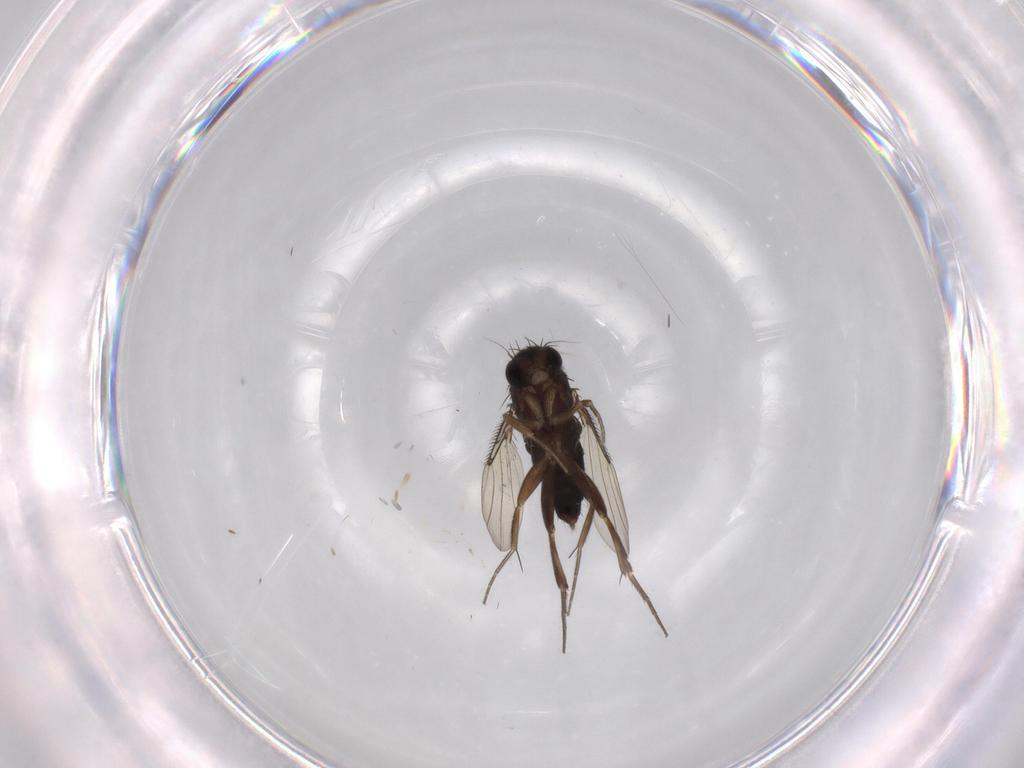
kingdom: Animalia
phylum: Arthropoda
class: Insecta
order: Diptera
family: Phoridae
